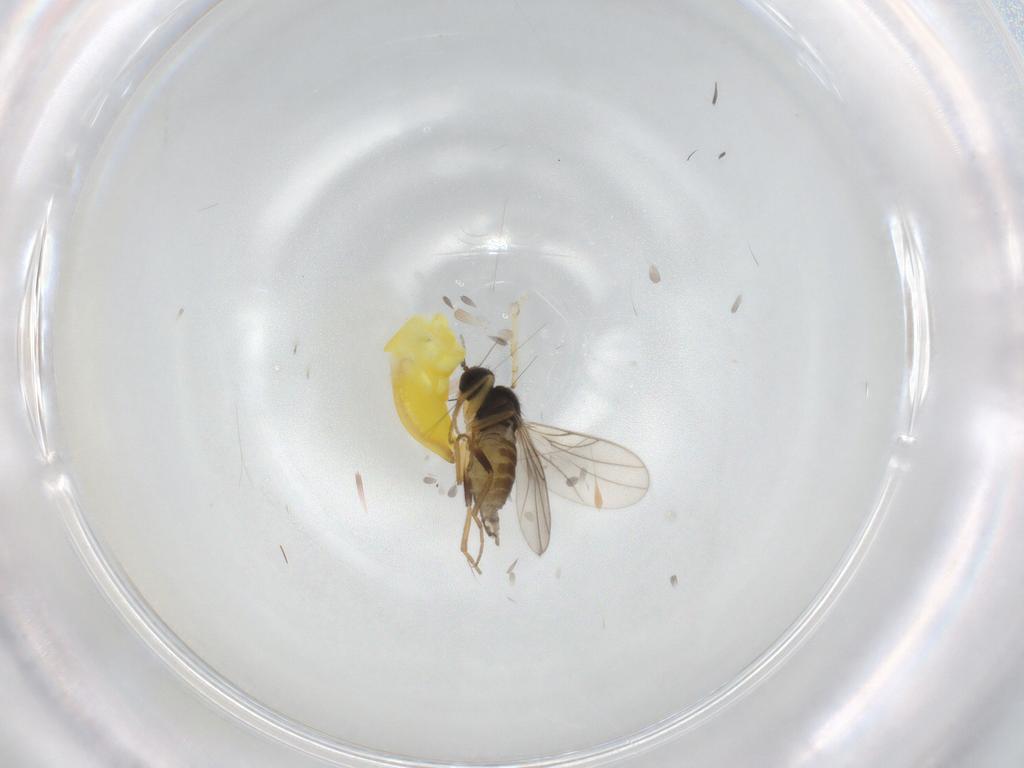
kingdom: Animalia
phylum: Arthropoda
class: Insecta
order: Diptera
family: Hybotidae
